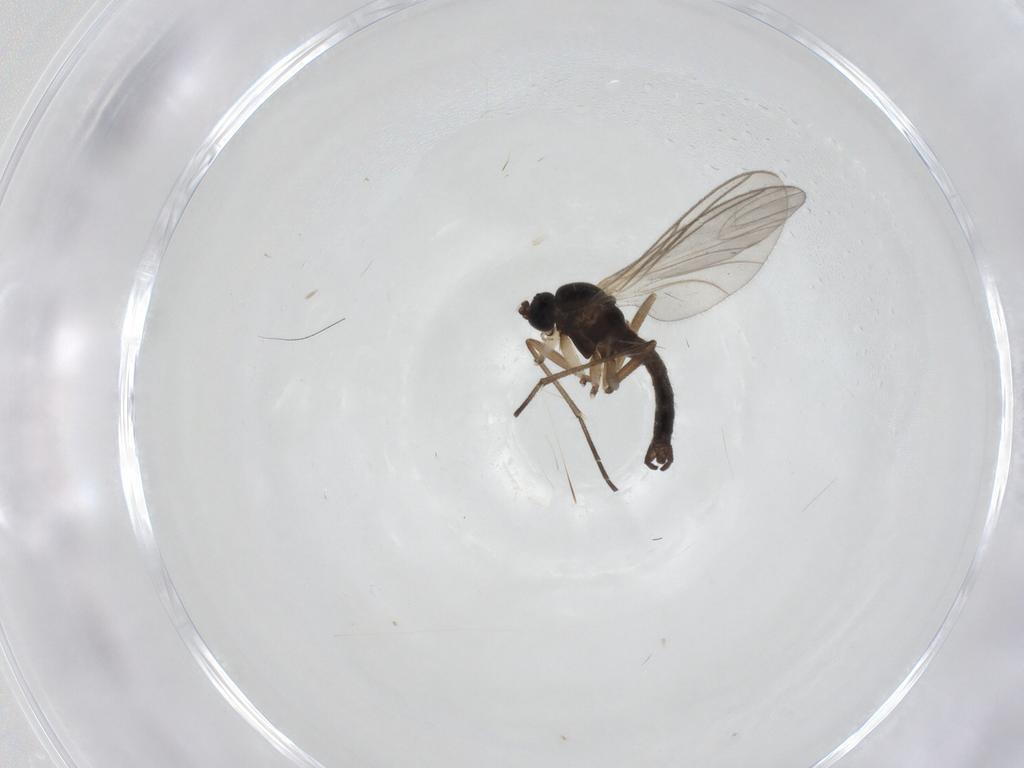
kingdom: Animalia
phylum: Arthropoda
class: Insecta
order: Diptera
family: Sciaridae
